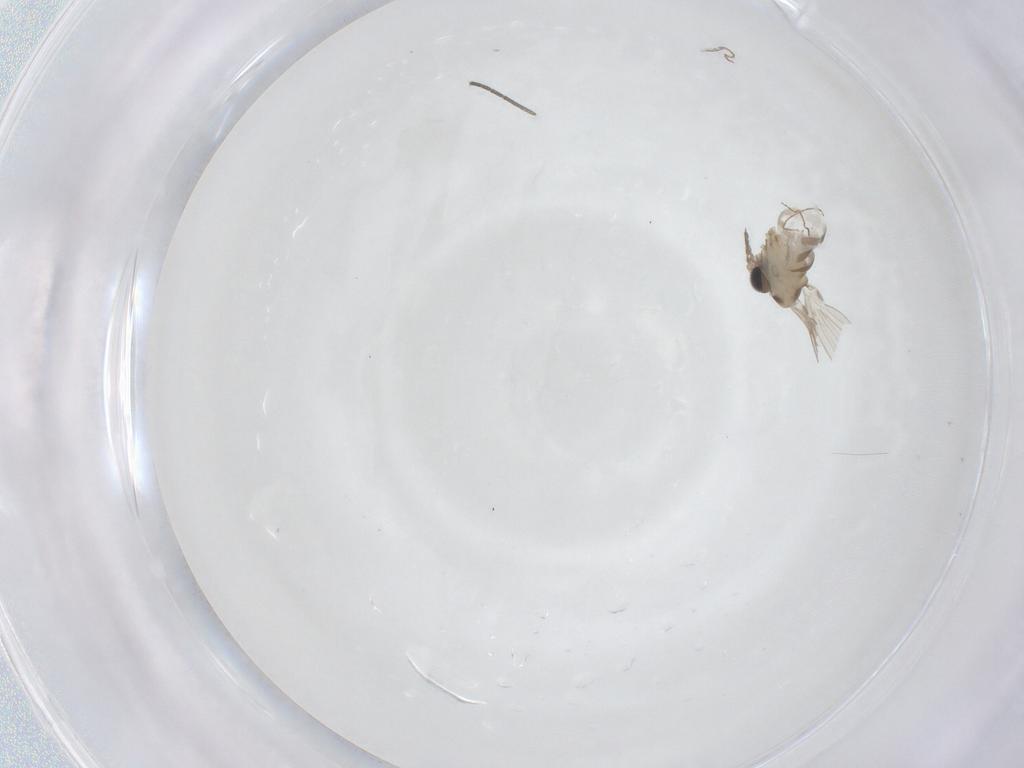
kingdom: Animalia
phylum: Arthropoda
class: Insecta
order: Diptera
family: Psychodidae
